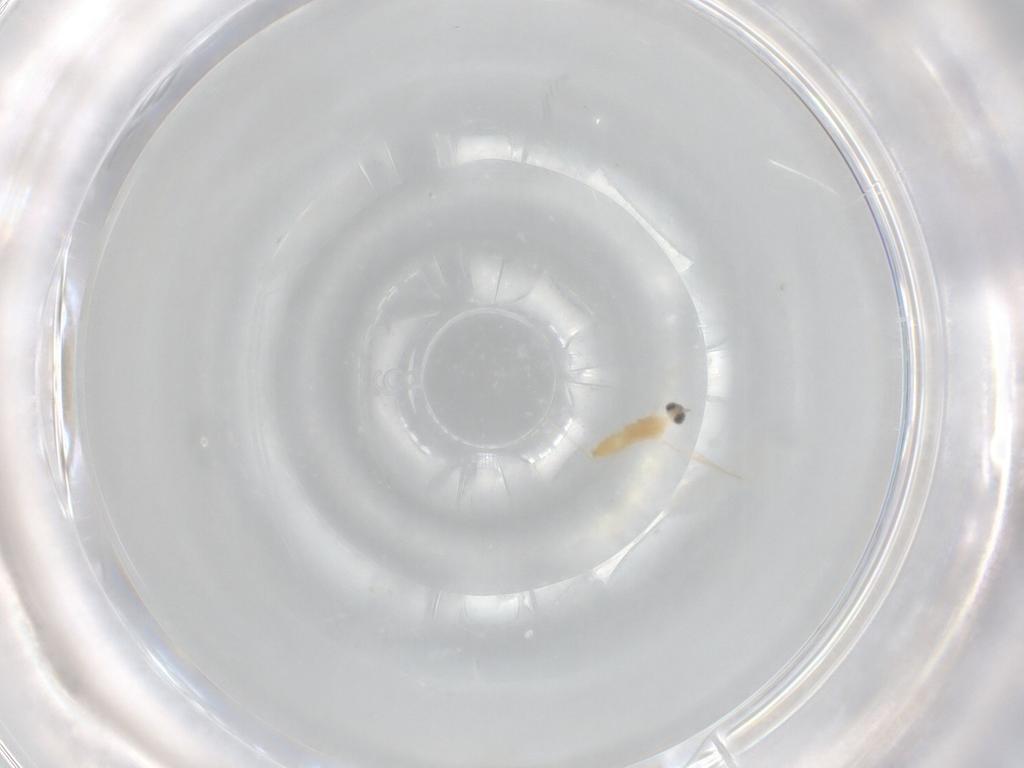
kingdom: Animalia
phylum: Arthropoda
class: Insecta
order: Diptera
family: Cecidomyiidae
